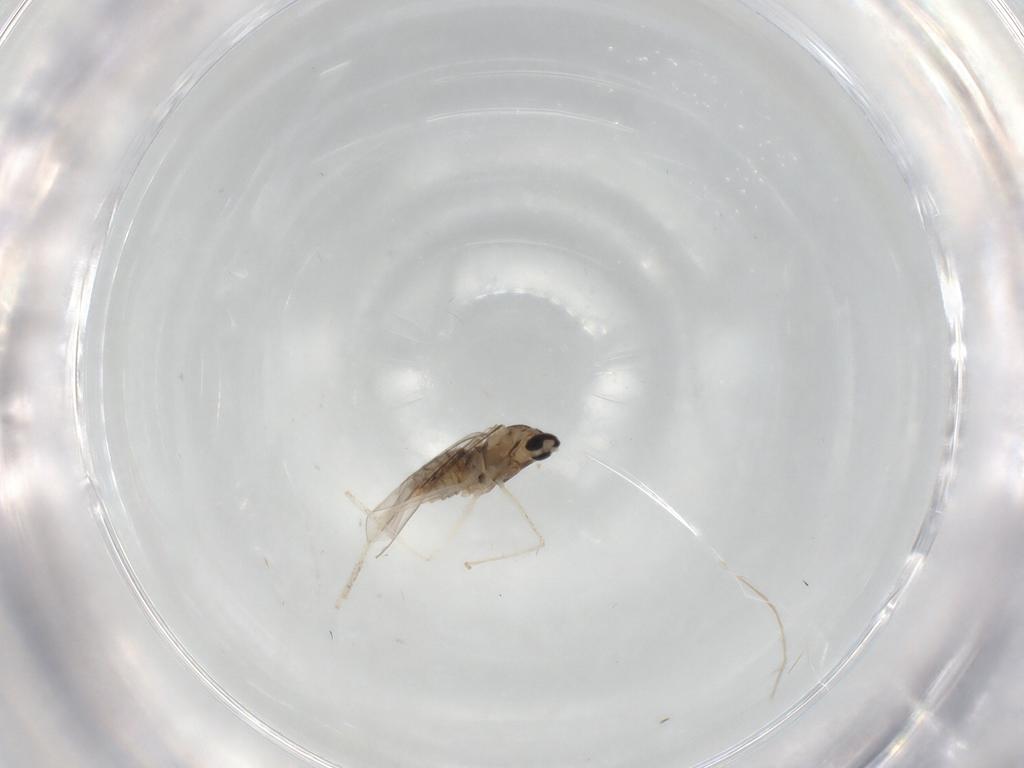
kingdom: Animalia
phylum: Arthropoda
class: Insecta
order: Diptera
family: Cecidomyiidae
